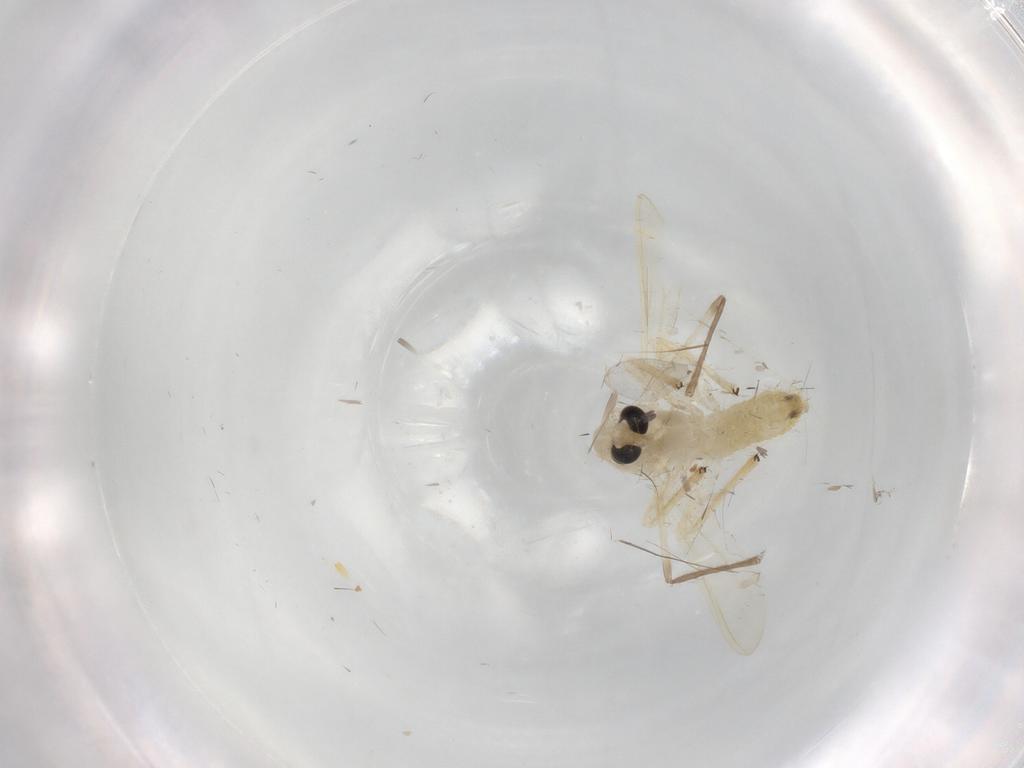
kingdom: Animalia
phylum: Arthropoda
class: Insecta
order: Diptera
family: Chironomidae
